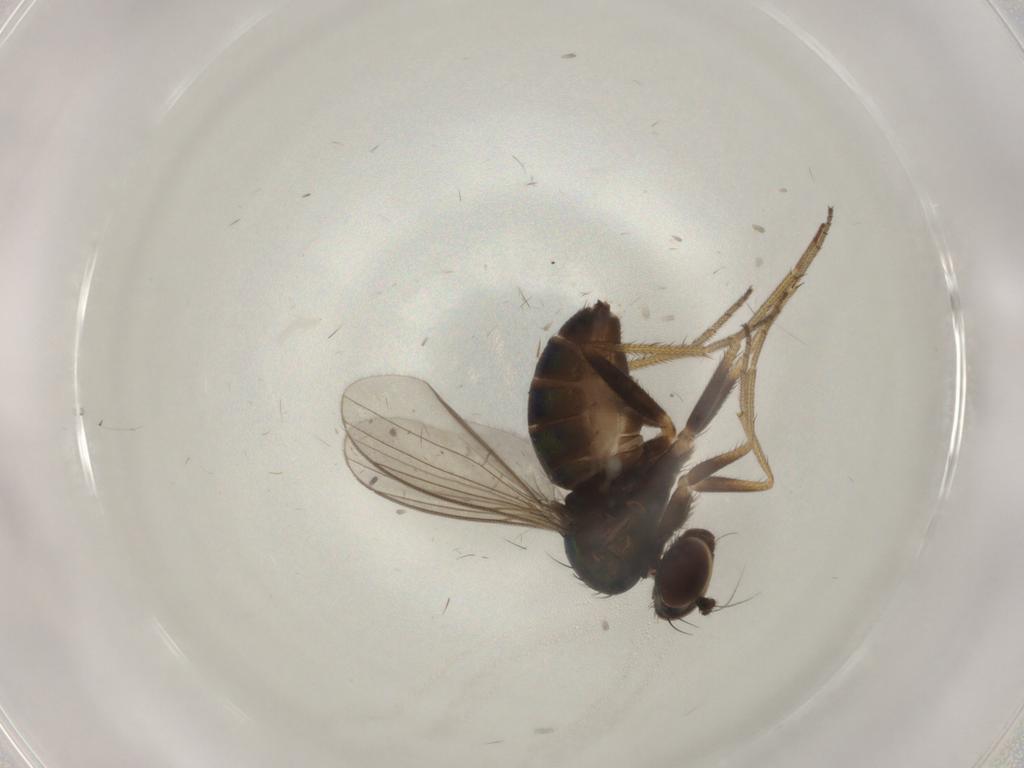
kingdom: Animalia
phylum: Arthropoda
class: Insecta
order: Diptera
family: Dolichopodidae
